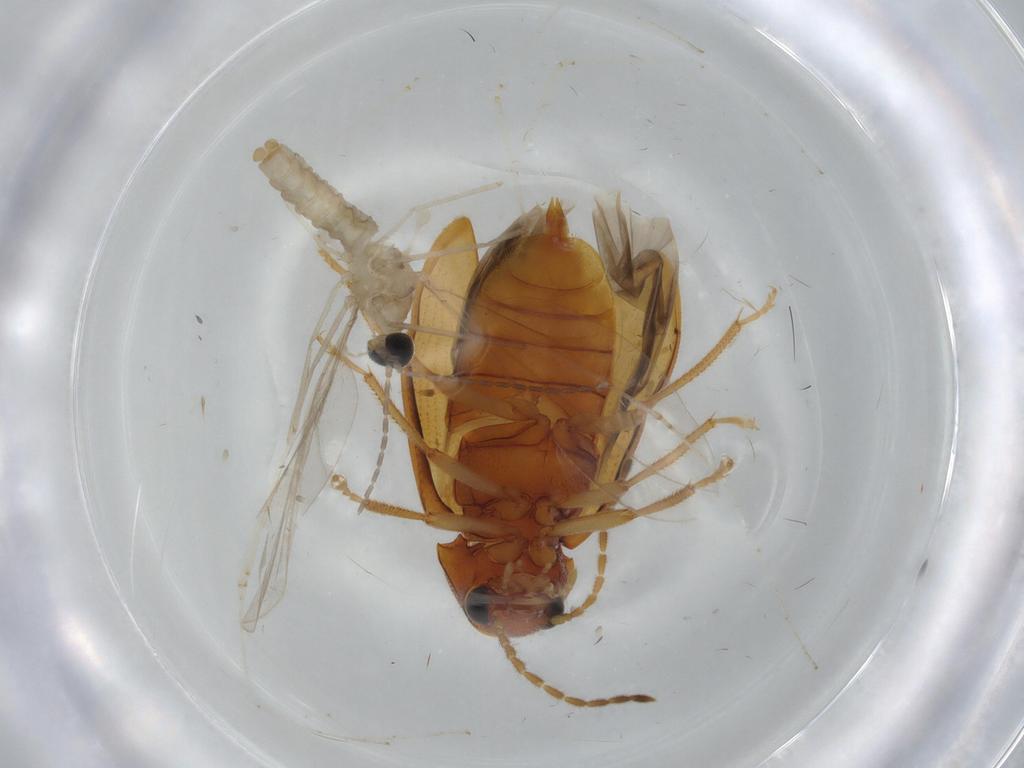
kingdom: Animalia
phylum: Arthropoda
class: Insecta
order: Coleoptera
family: Ptilodactylidae
